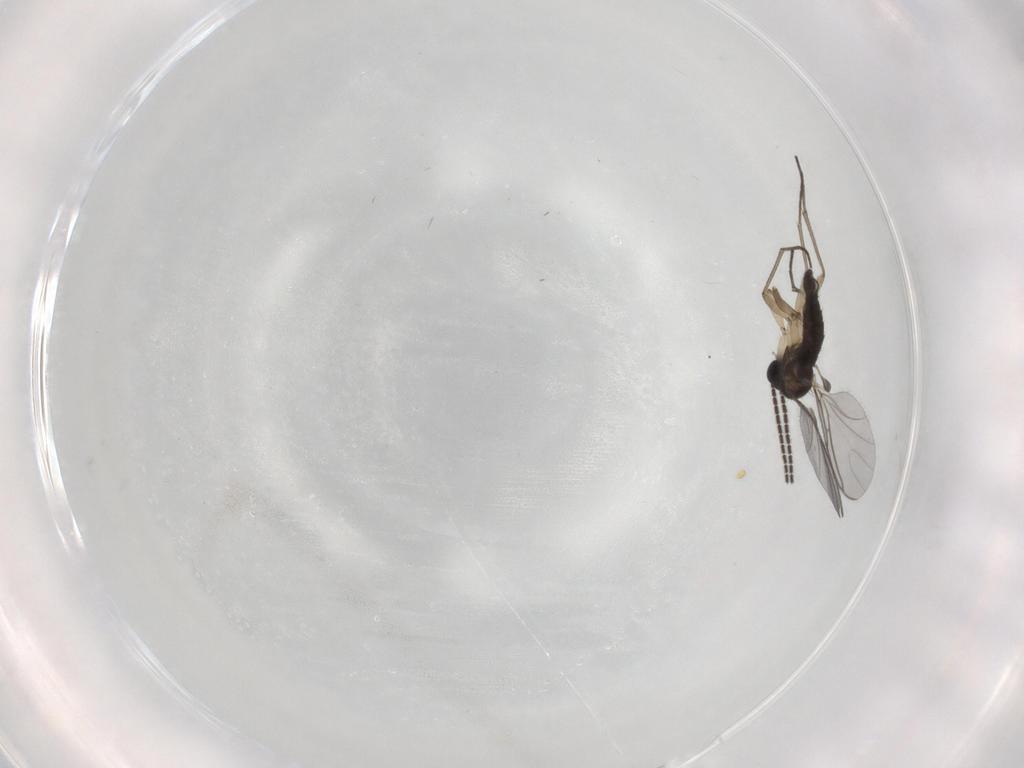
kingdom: Animalia
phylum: Arthropoda
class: Insecta
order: Diptera
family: Sciaridae
